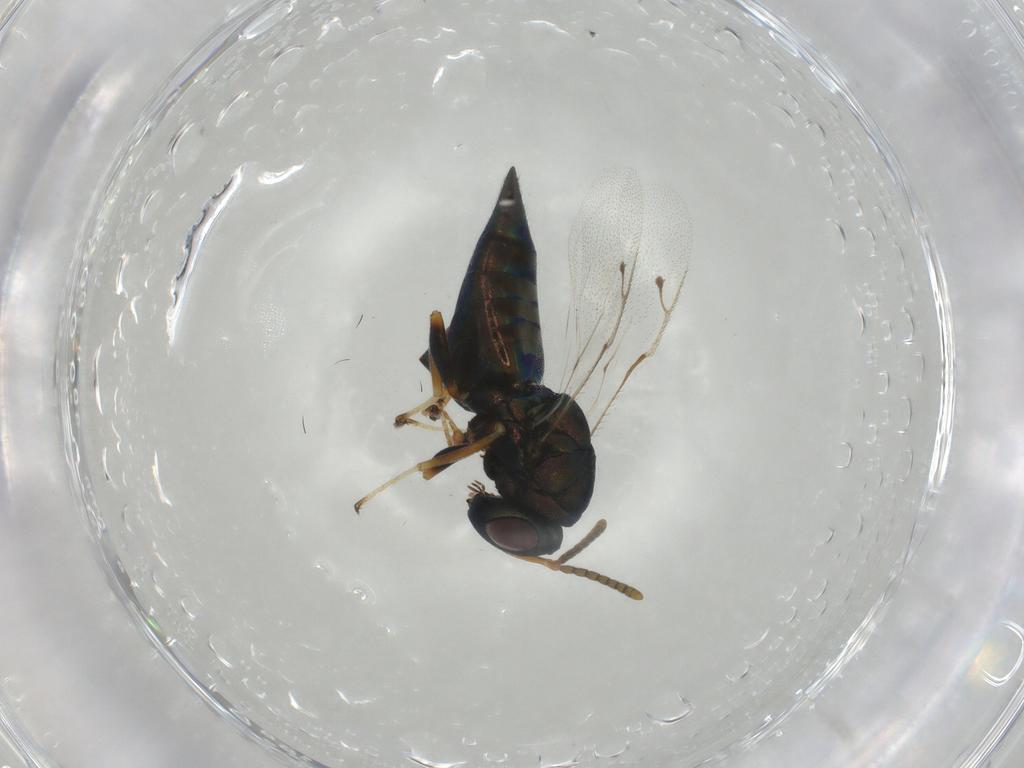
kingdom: Animalia
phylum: Arthropoda
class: Insecta
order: Hymenoptera
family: Pteromalidae
